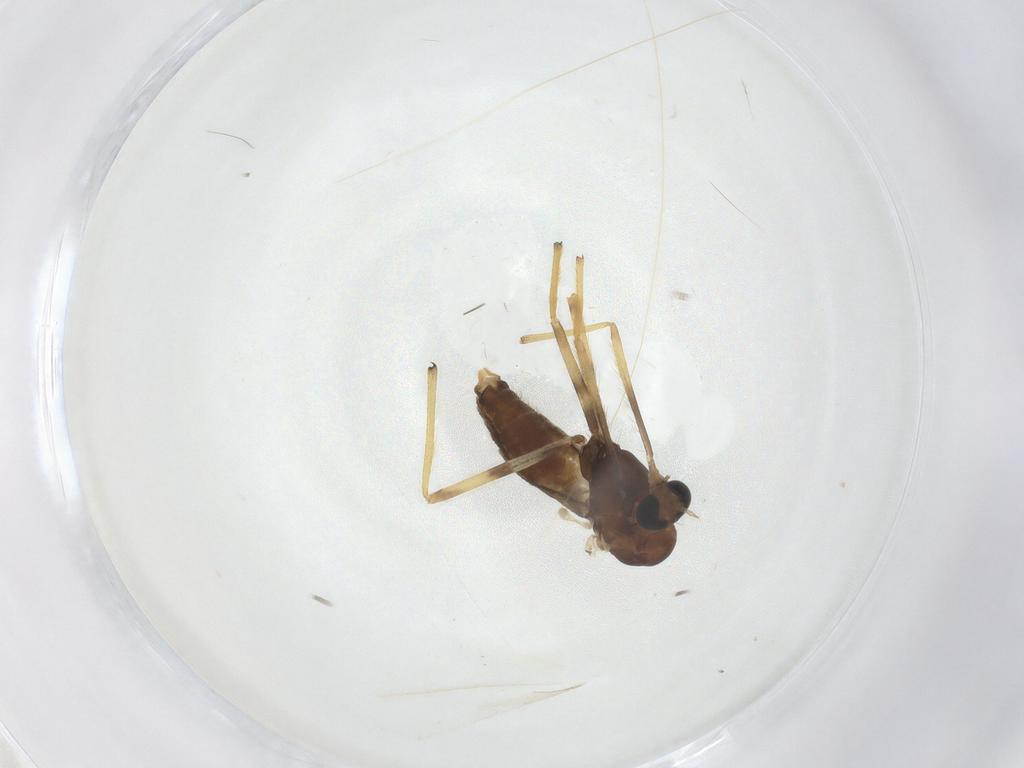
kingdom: Animalia
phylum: Arthropoda
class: Insecta
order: Diptera
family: Chironomidae
